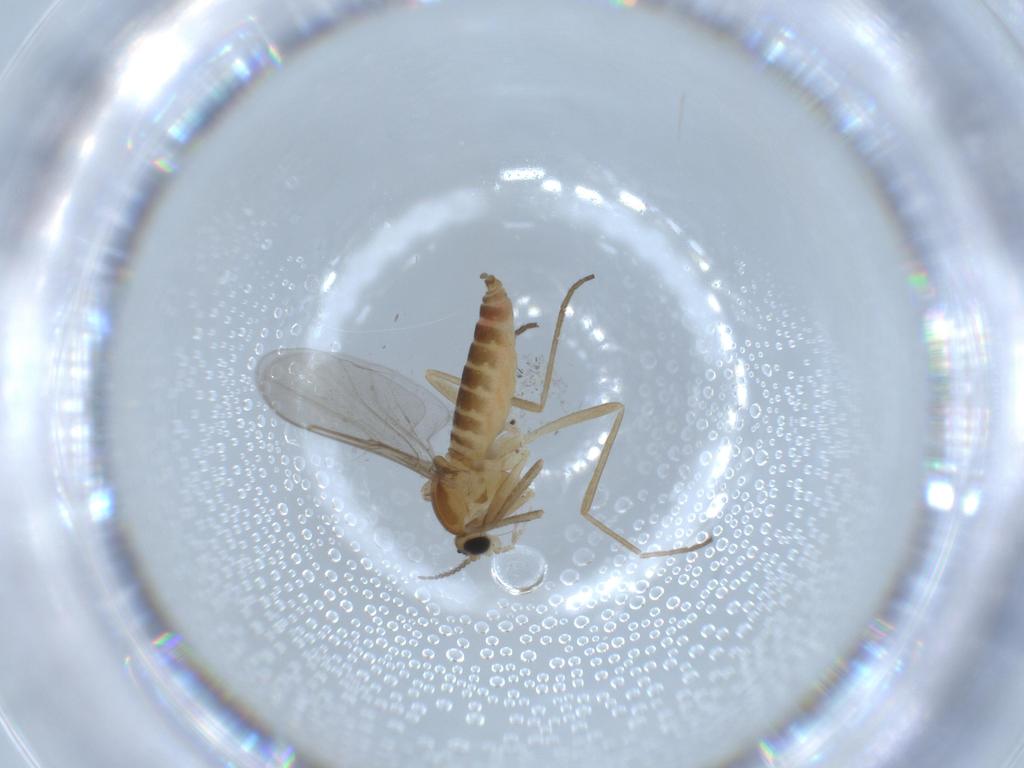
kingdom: Animalia
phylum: Arthropoda
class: Insecta
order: Diptera
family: Cecidomyiidae
